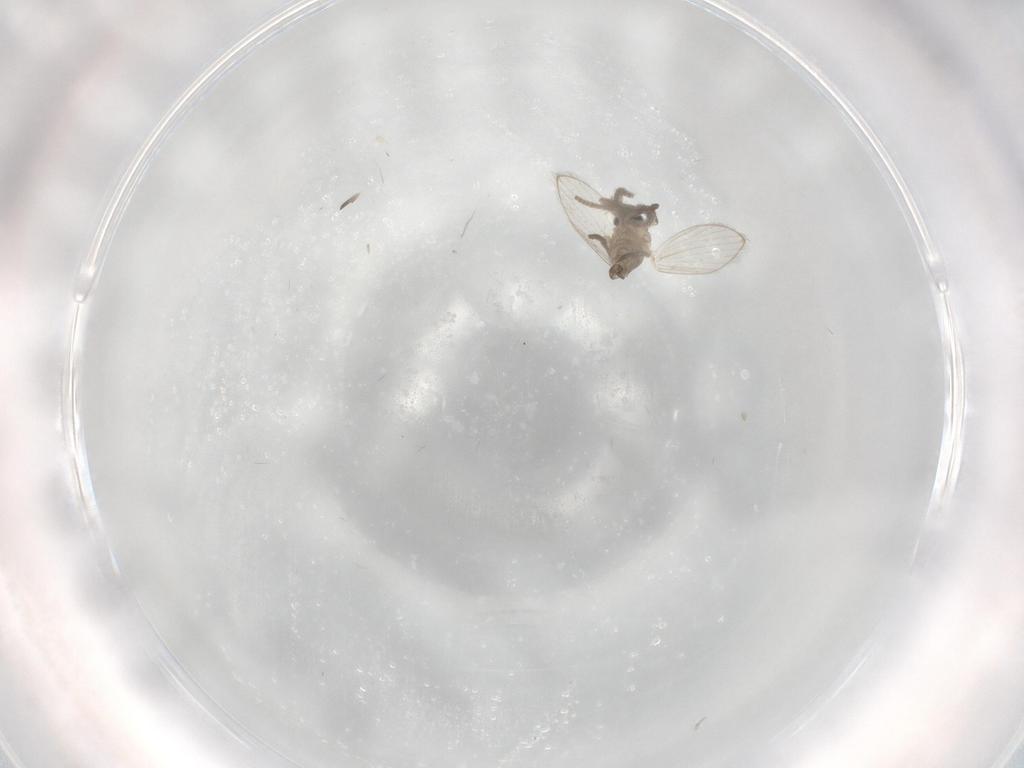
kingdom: Animalia
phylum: Arthropoda
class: Insecta
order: Diptera
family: Psychodidae
